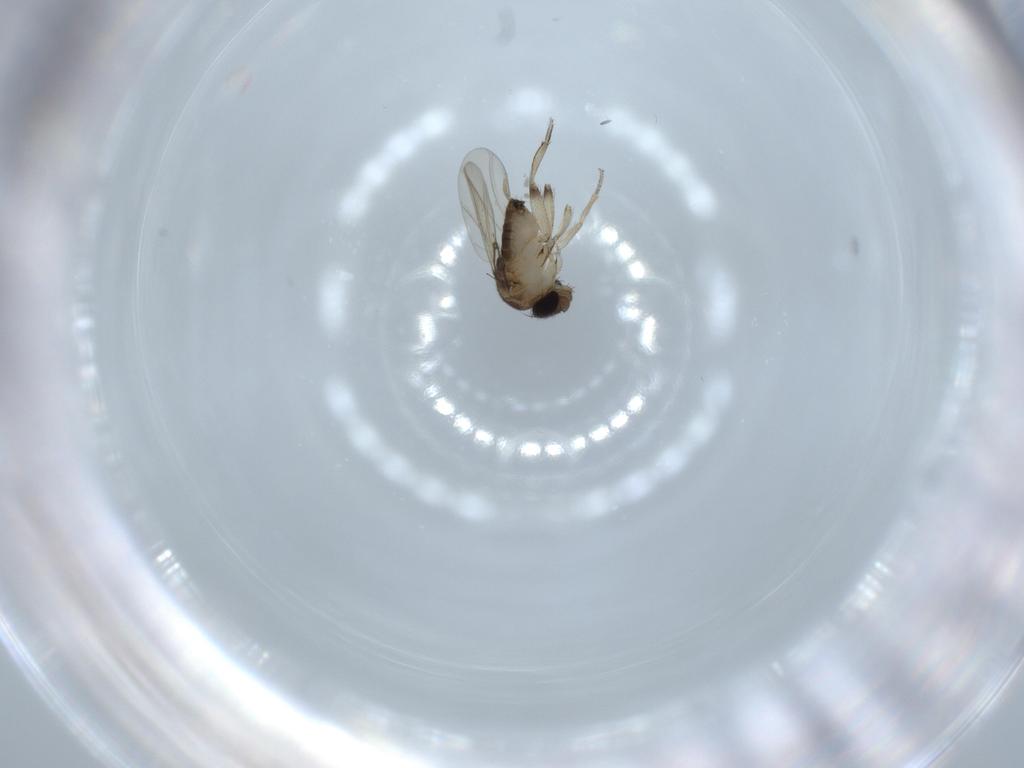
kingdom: Animalia
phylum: Arthropoda
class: Insecta
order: Diptera
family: Phoridae
